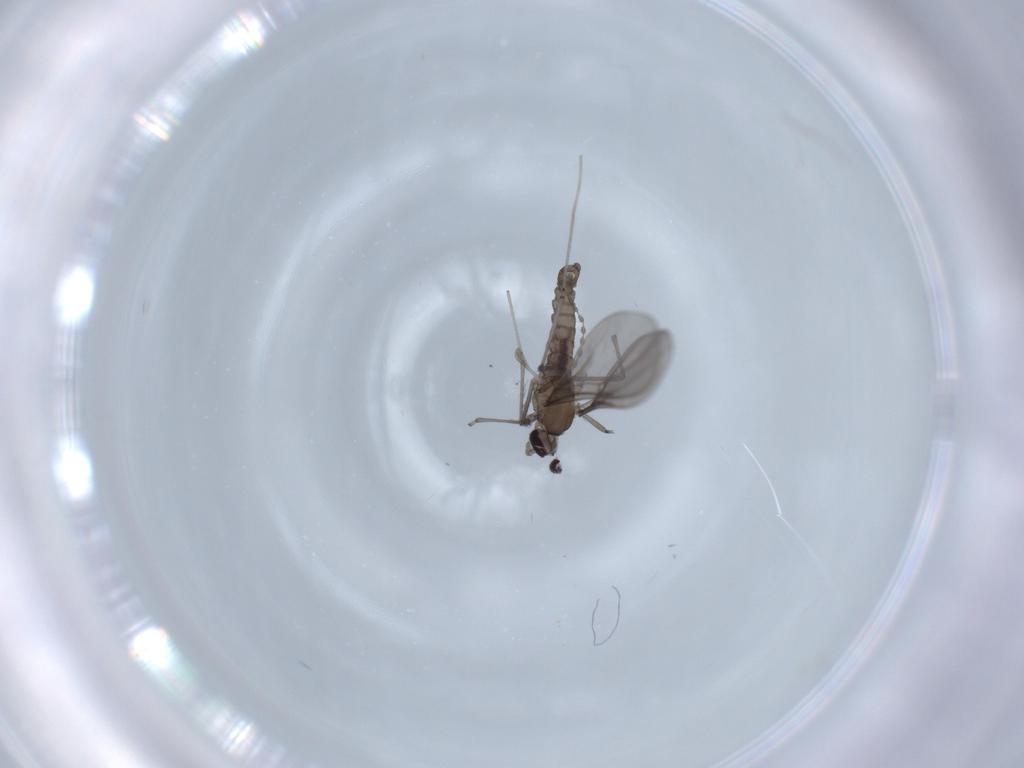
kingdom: Animalia
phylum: Arthropoda
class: Insecta
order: Diptera
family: Cecidomyiidae
